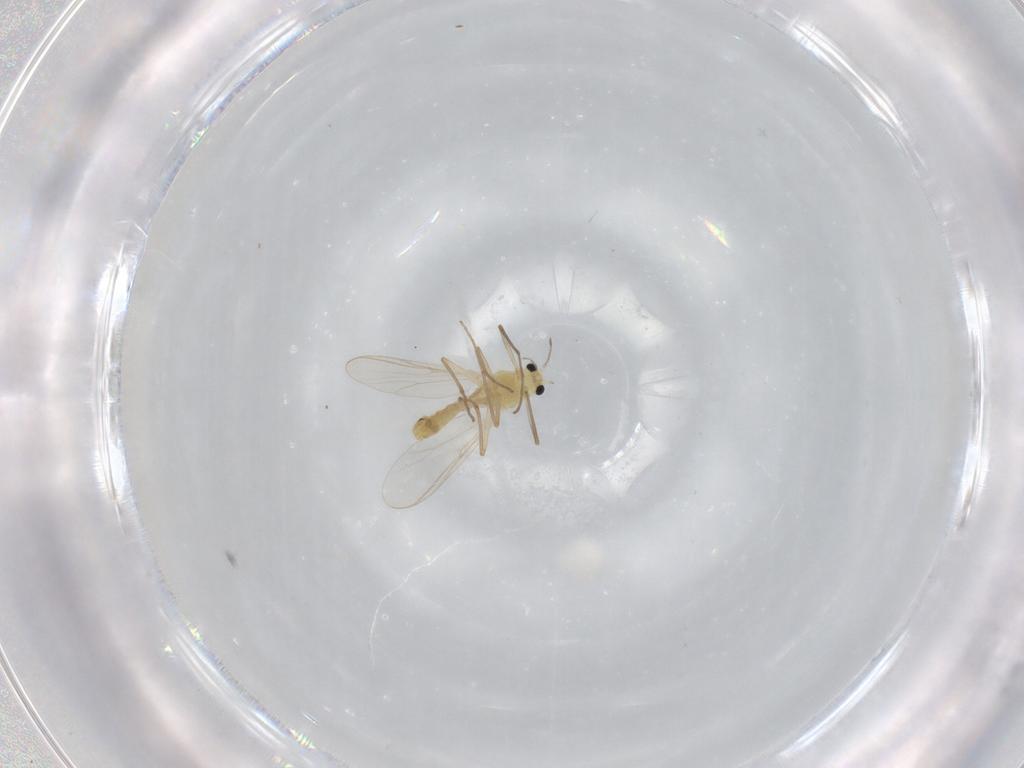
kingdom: Animalia
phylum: Arthropoda
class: Insecta
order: Diptera
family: Chironomidae
